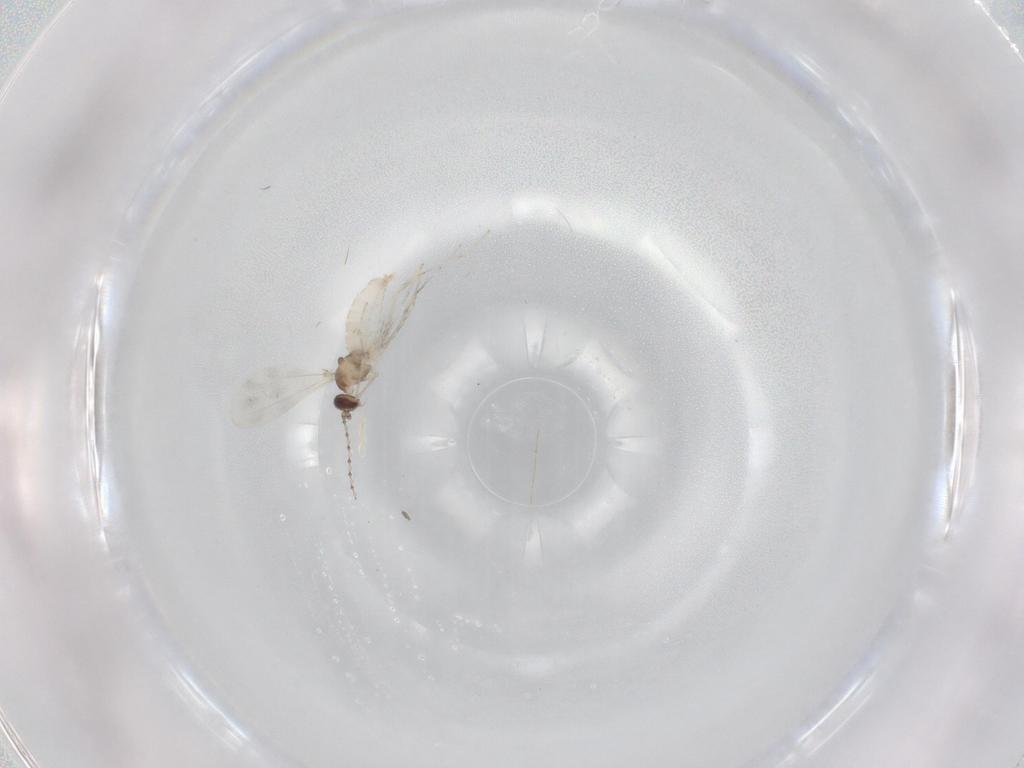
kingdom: Animalia
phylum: Arthropoda
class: Insecta
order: Diptera
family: Cecidomyiidae
